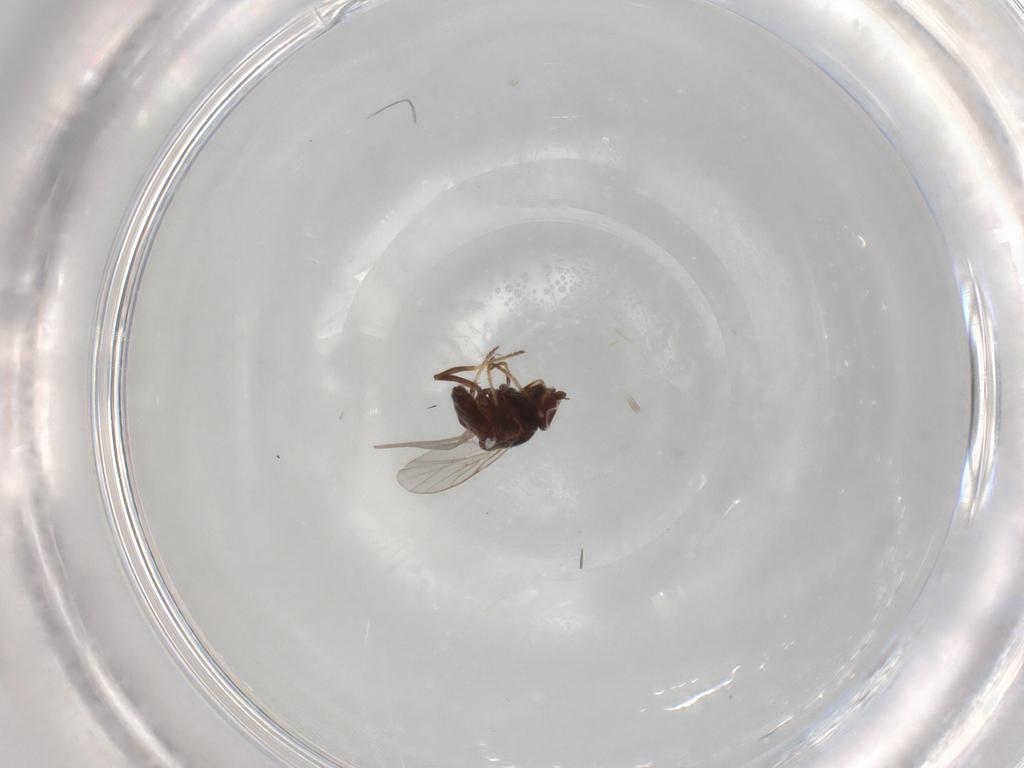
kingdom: Animalia
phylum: Arthropoda
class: Insecta
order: Diptera
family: Chloropidae
